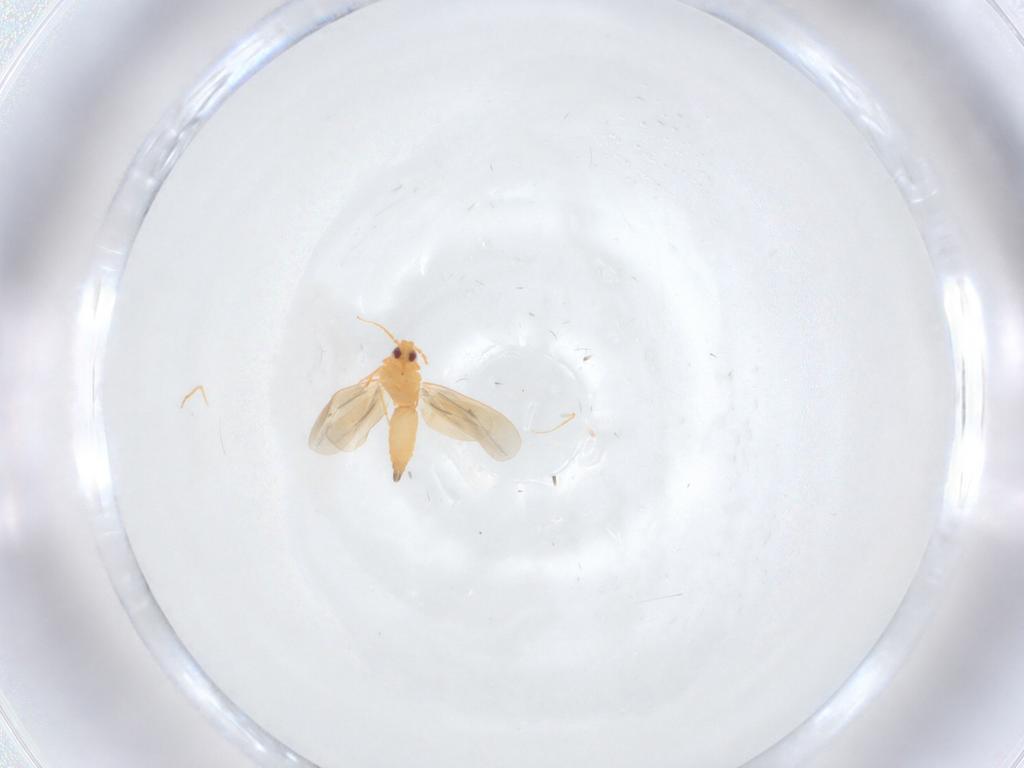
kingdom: Animalia
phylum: Arthropoda
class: Insecta
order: Hemiptera
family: Aleyrodidae
